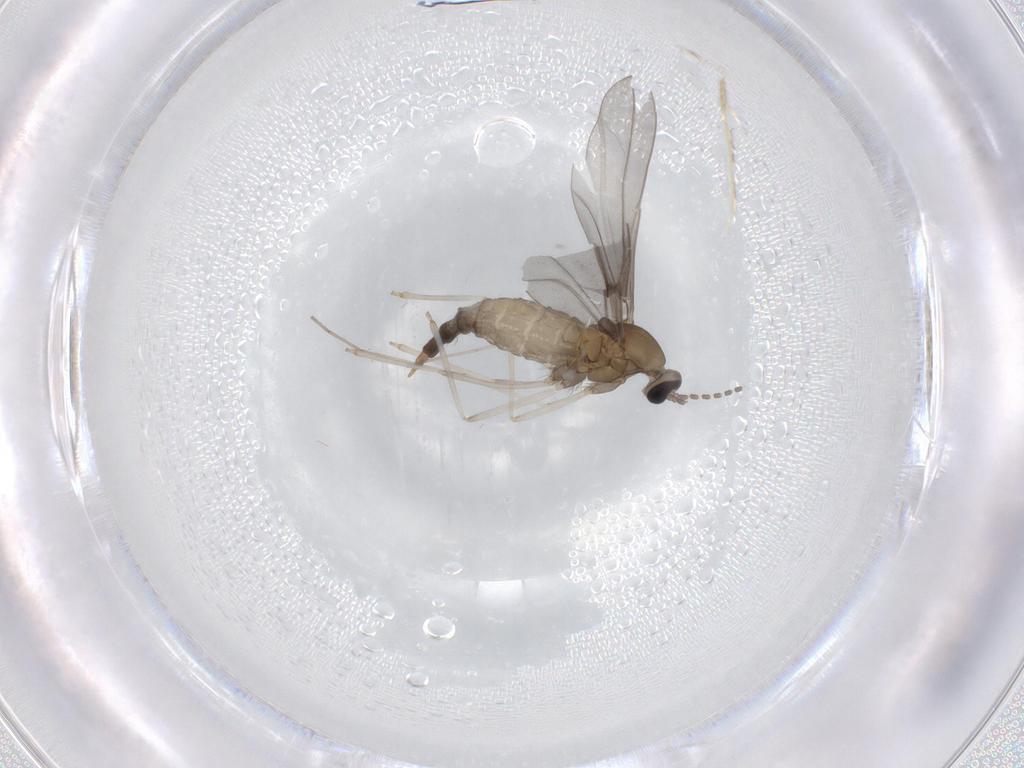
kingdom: Animalia
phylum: Arthropoda
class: Insecta
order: Diptera
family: Cecidomyiidae
